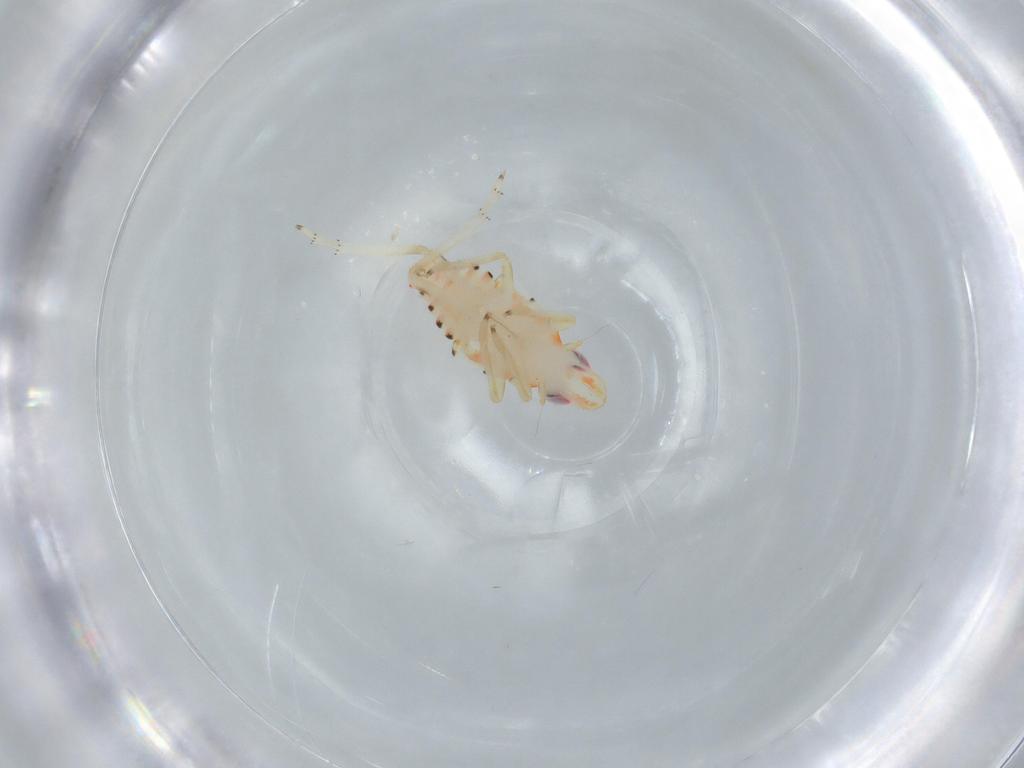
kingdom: Animalia
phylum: Arthropoda
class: Insecta
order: Hemiptera
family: Tropiduchidae
